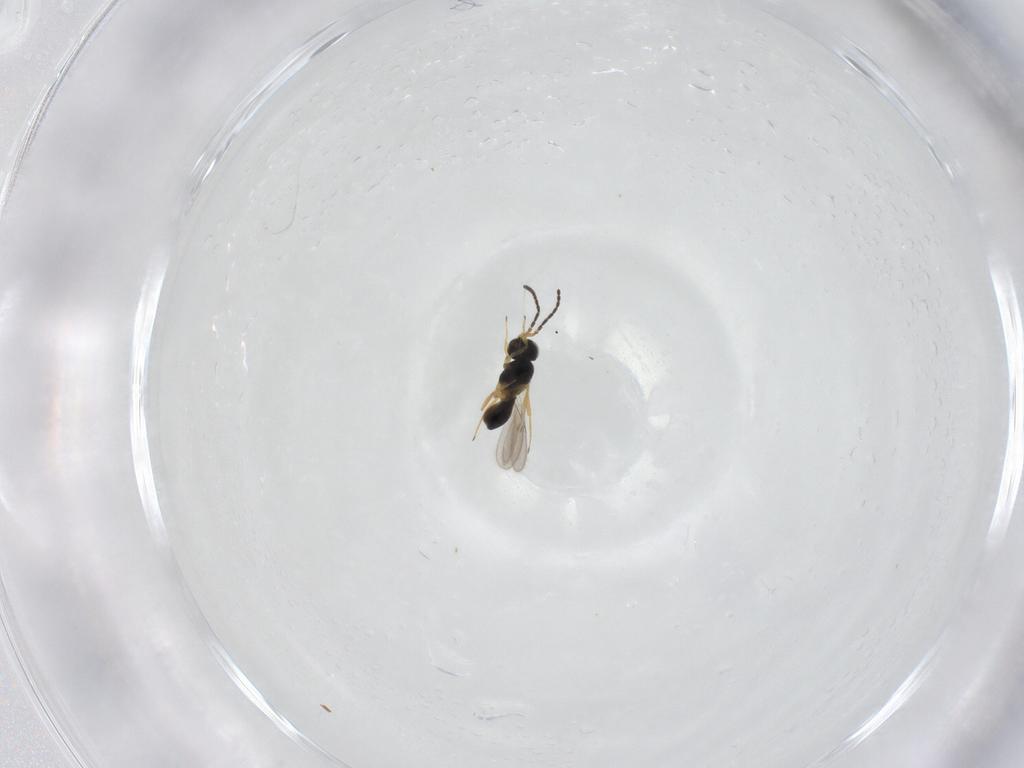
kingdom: Animalia
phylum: Arthropoda
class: Insecta
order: Hymenoptera
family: Scelionidae
